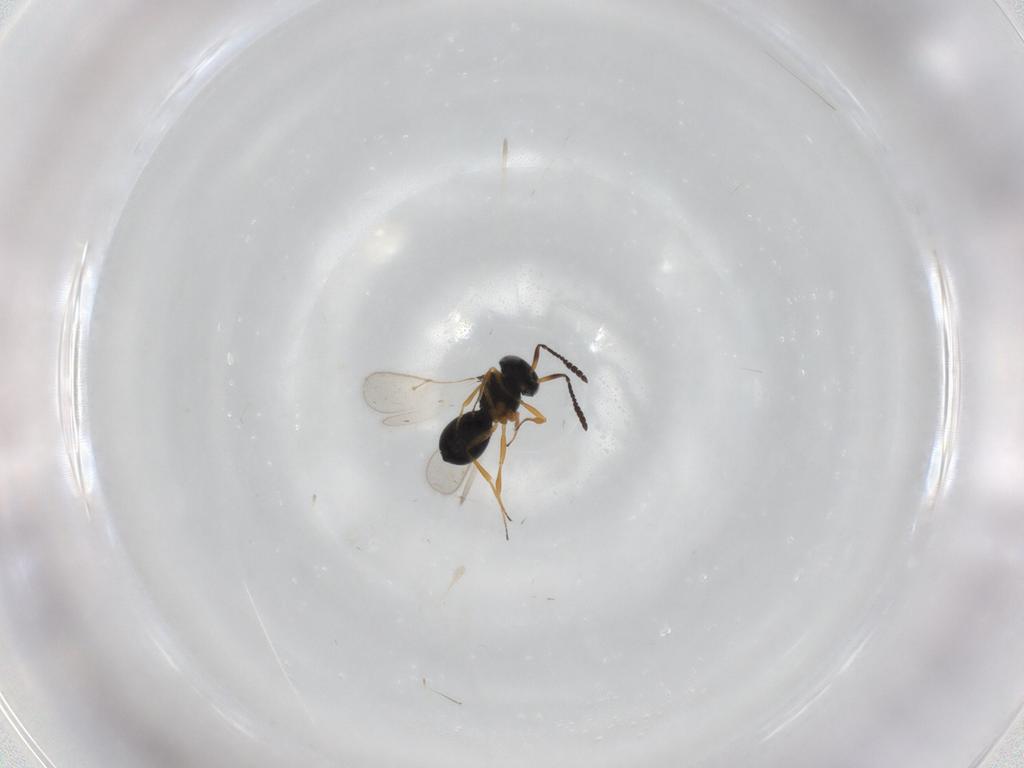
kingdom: Animalia
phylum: Arthropoda
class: Insecta
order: Hymenoptera
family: Scelionidae
